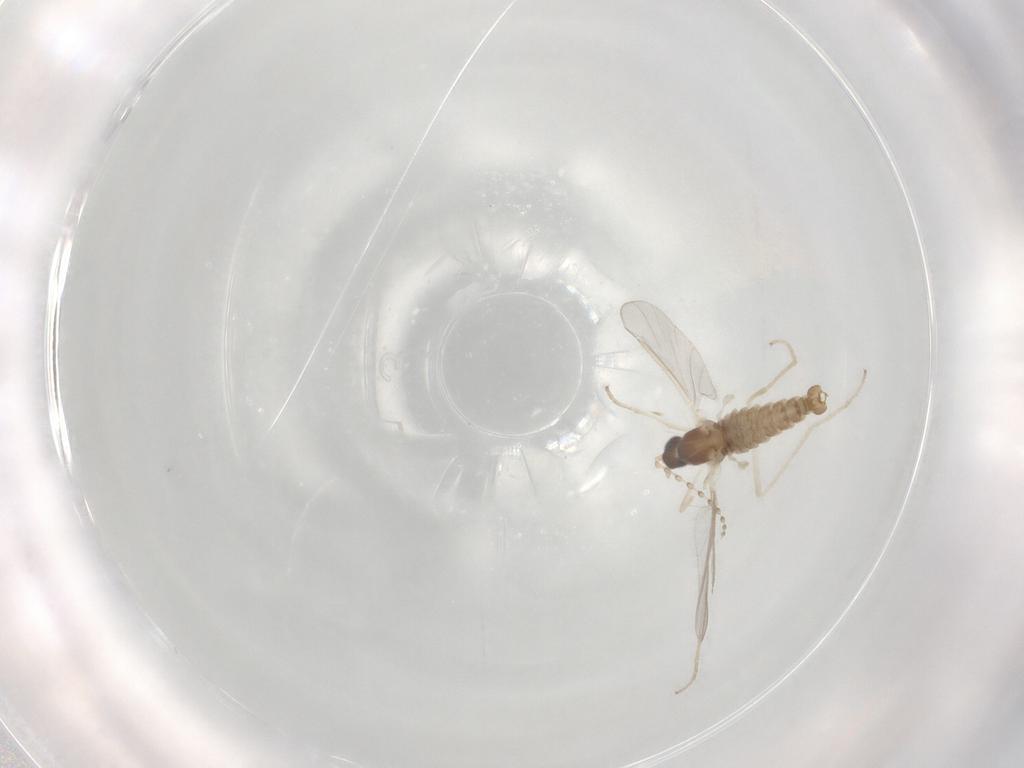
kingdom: Animalia
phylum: Arthropoda
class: Insecta
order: Diptera
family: Cecidomyiidae
